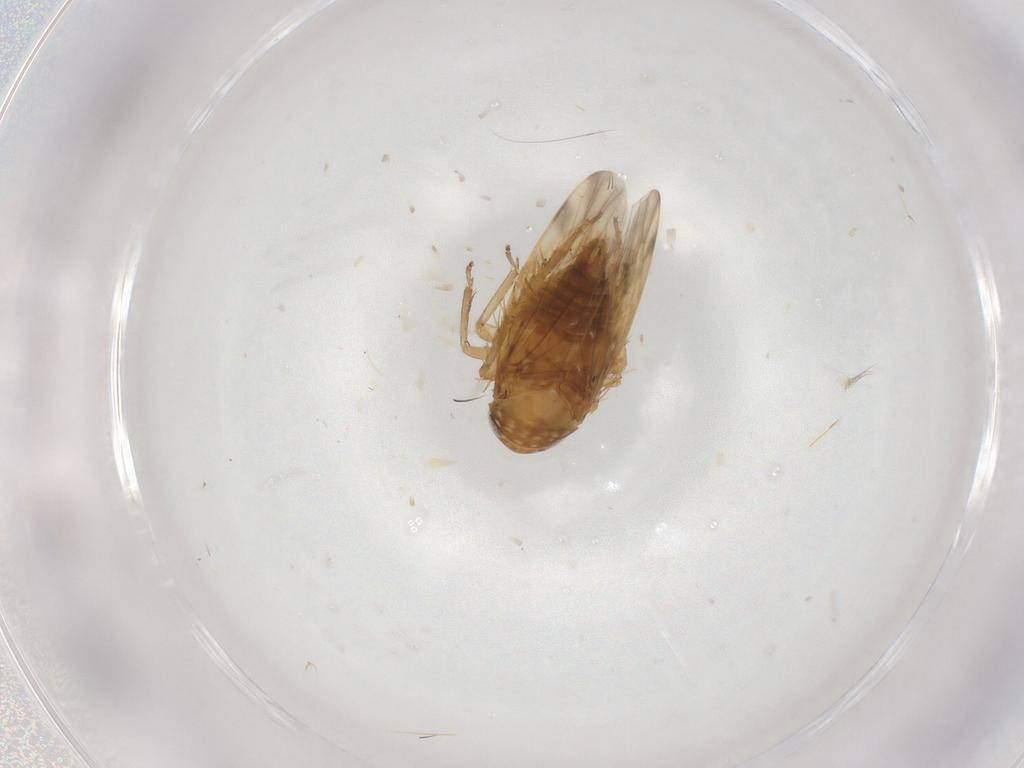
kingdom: Animalia
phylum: Arthropoda
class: Insecta
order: Hemiptera
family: Cicadellidae
